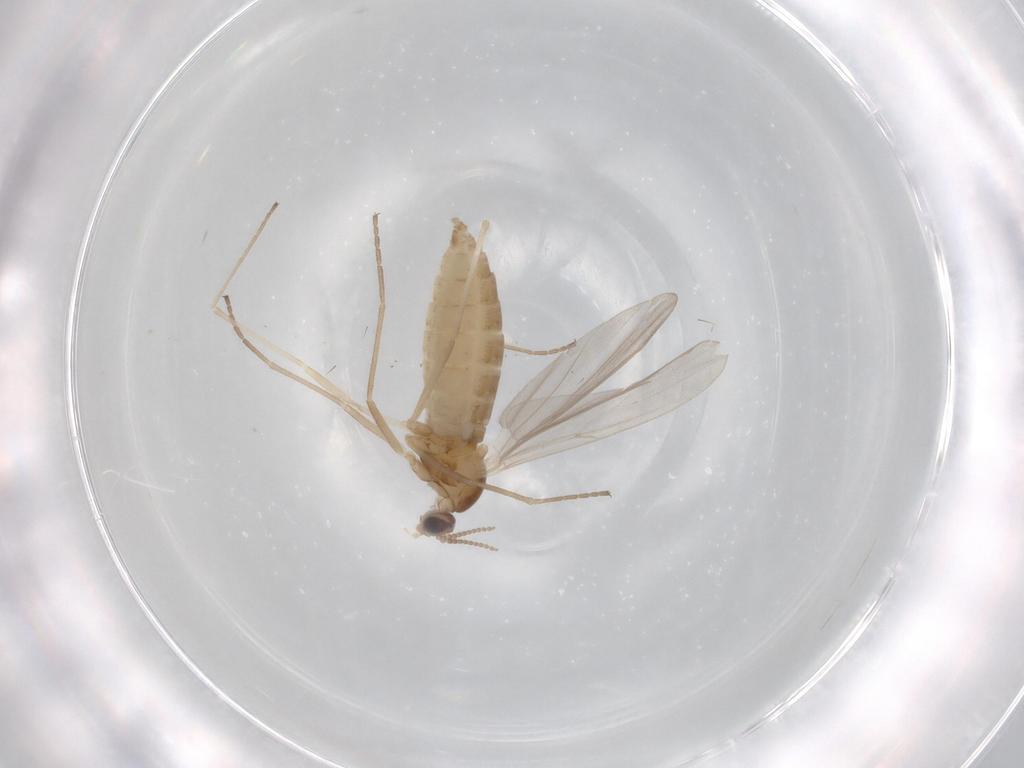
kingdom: Animalia
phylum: Arthropoda
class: Insecta
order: Diptera
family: Cecidomyiidae
